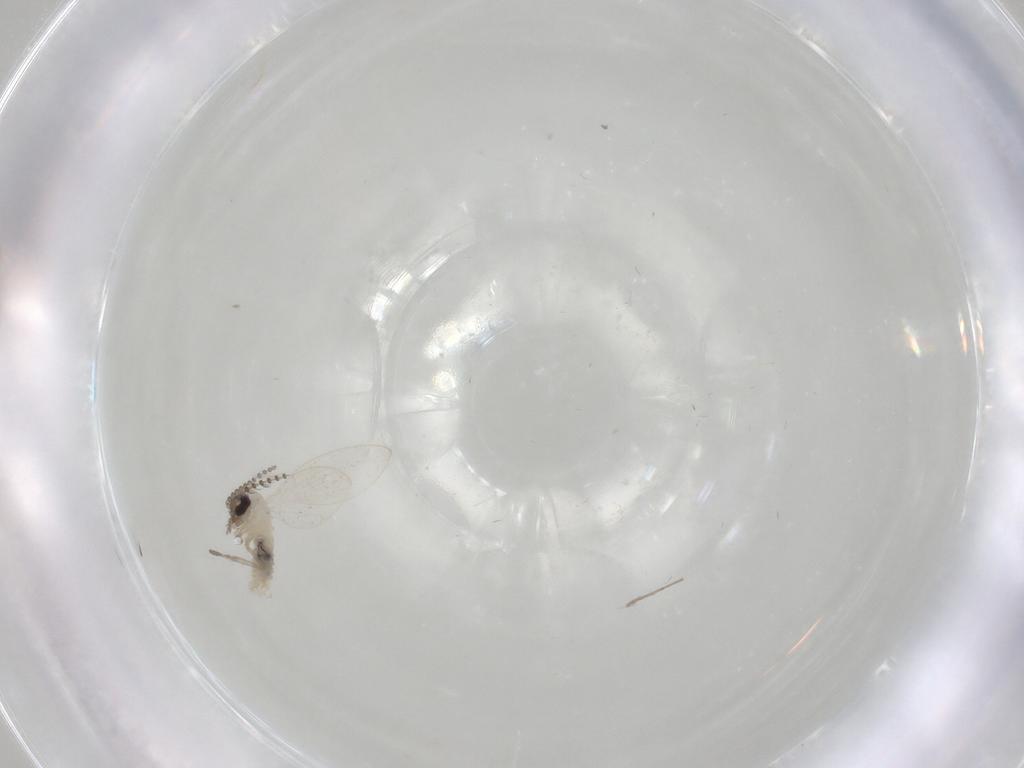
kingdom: Animalia
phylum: Arthropoda
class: Insecta
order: Diptera
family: Psychodidae
